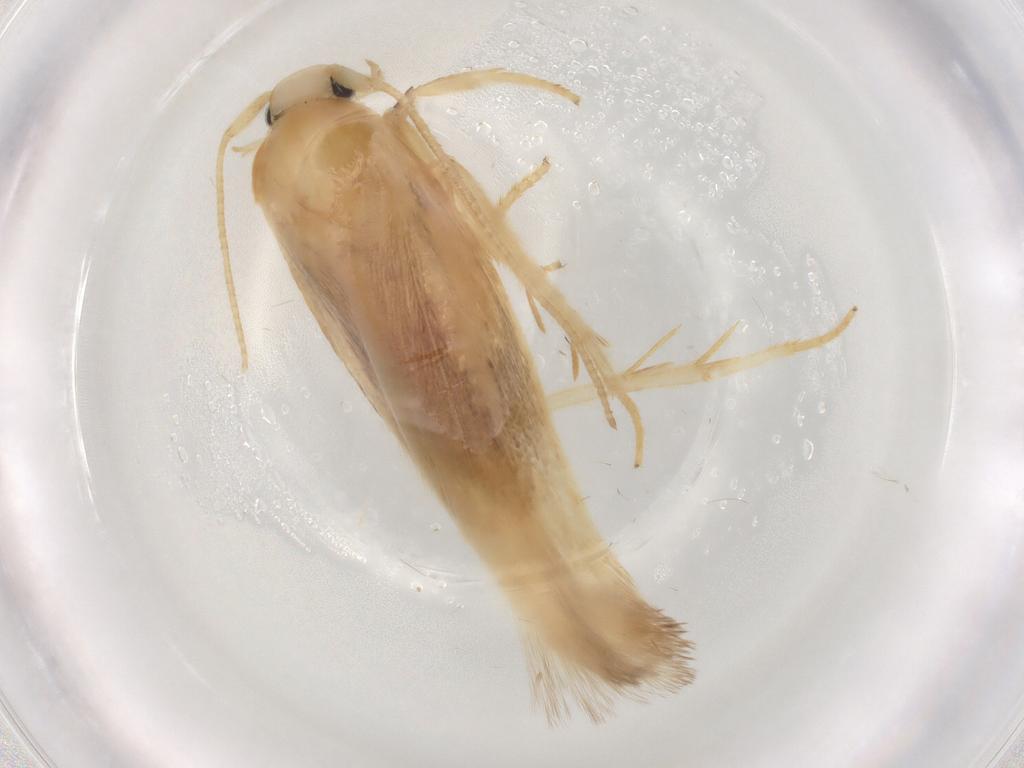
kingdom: Animalia
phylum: Arthropoda
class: Insecta
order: Lepidoptera
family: Geometridae
